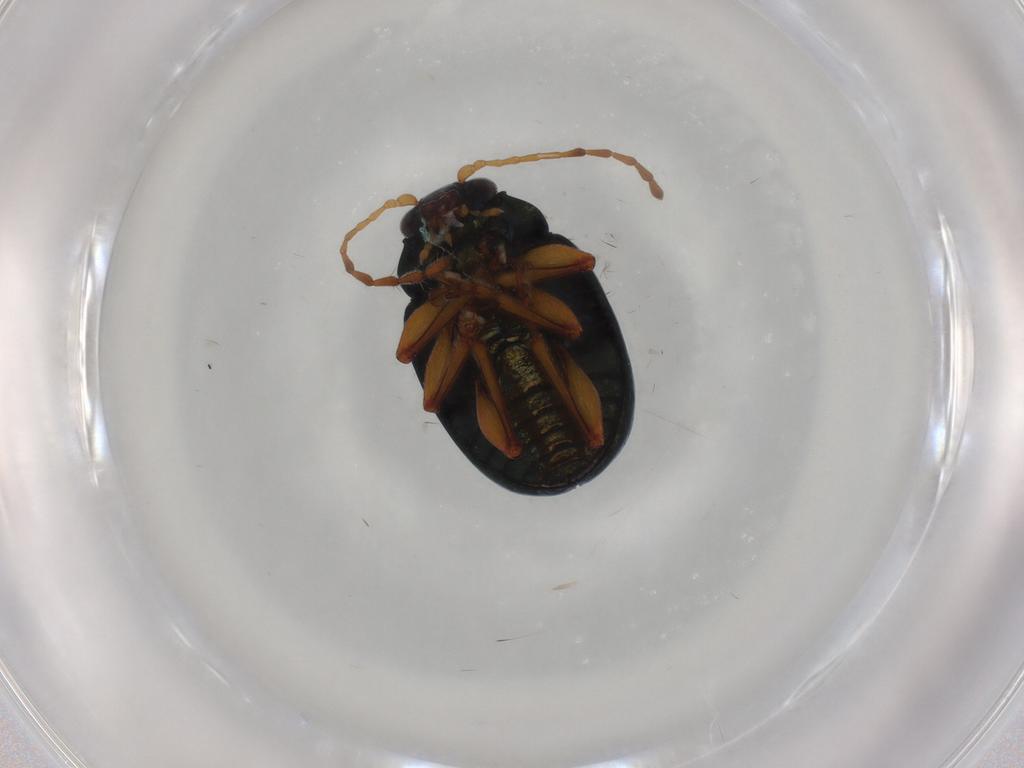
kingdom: Animalia
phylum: Arthropoda
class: Insecta
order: Coleoptera
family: Chrysomelidae
